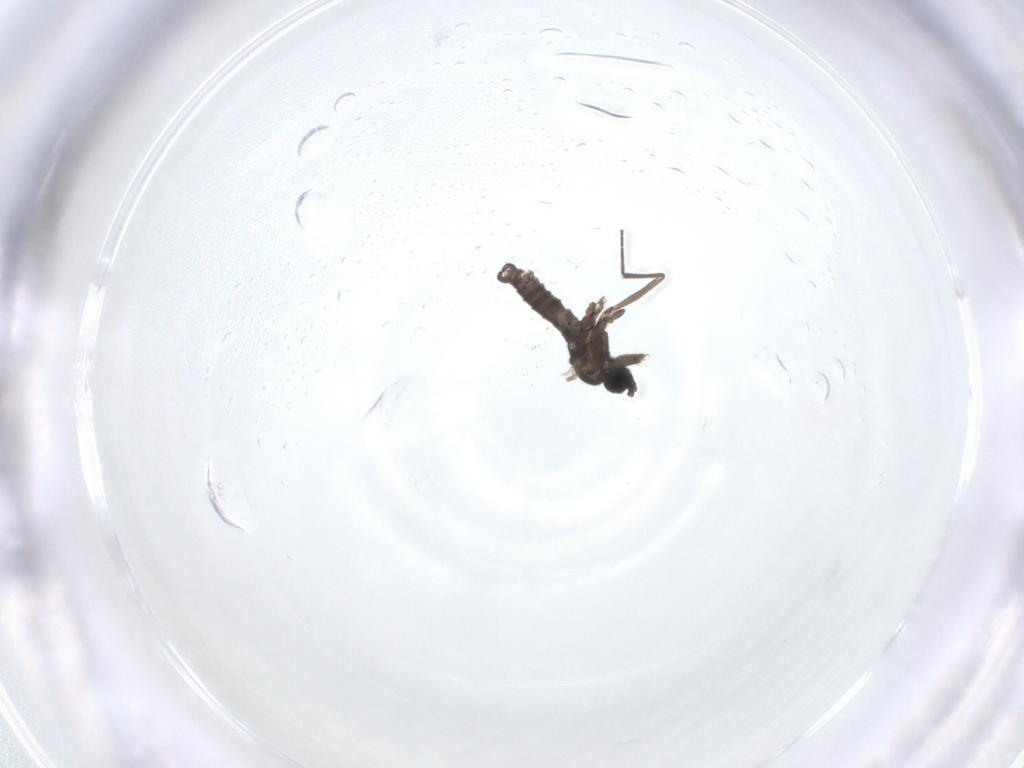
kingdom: Animalia
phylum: Arthropoda
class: Insecta
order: Diptera
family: Sciaridae
